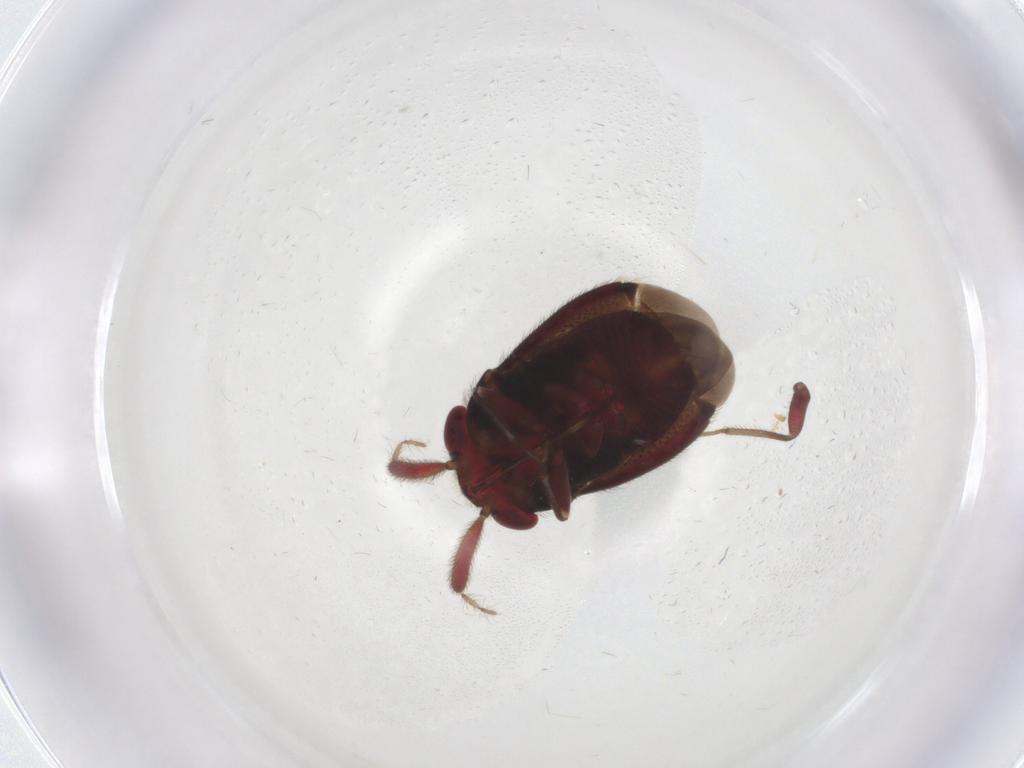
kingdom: Animalia
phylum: Arthropoda
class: Insecta
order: Hemiptera
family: Miridae
